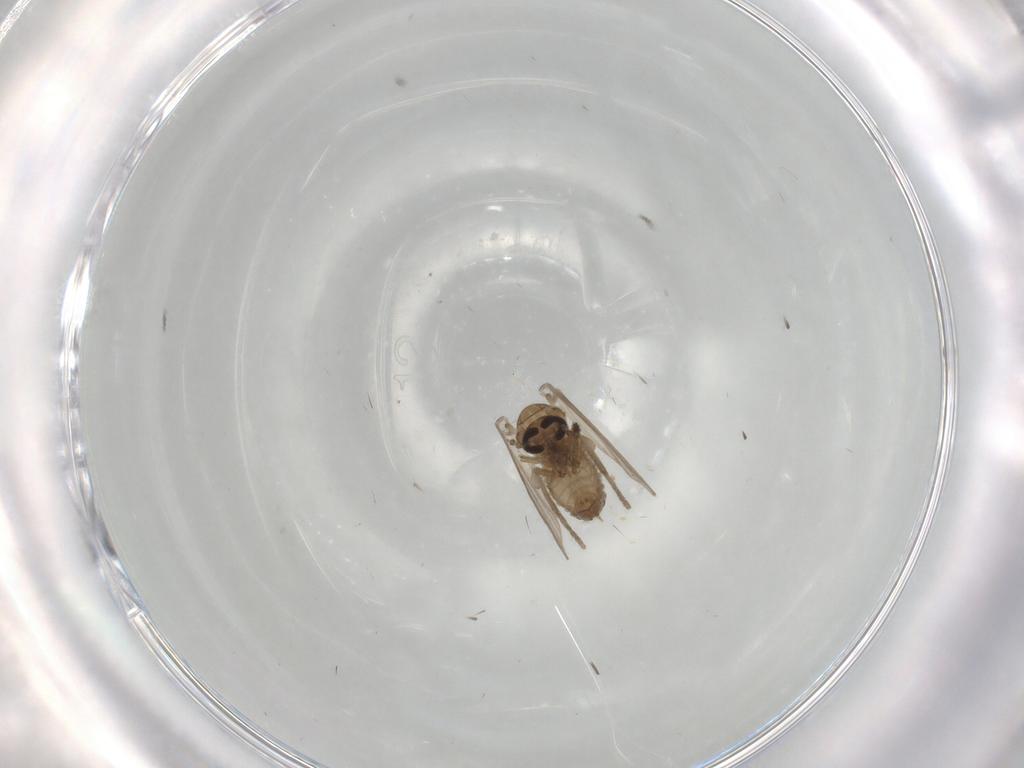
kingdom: Animalia
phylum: Arthropoda
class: Insecta
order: Diptera
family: Psychodidae
